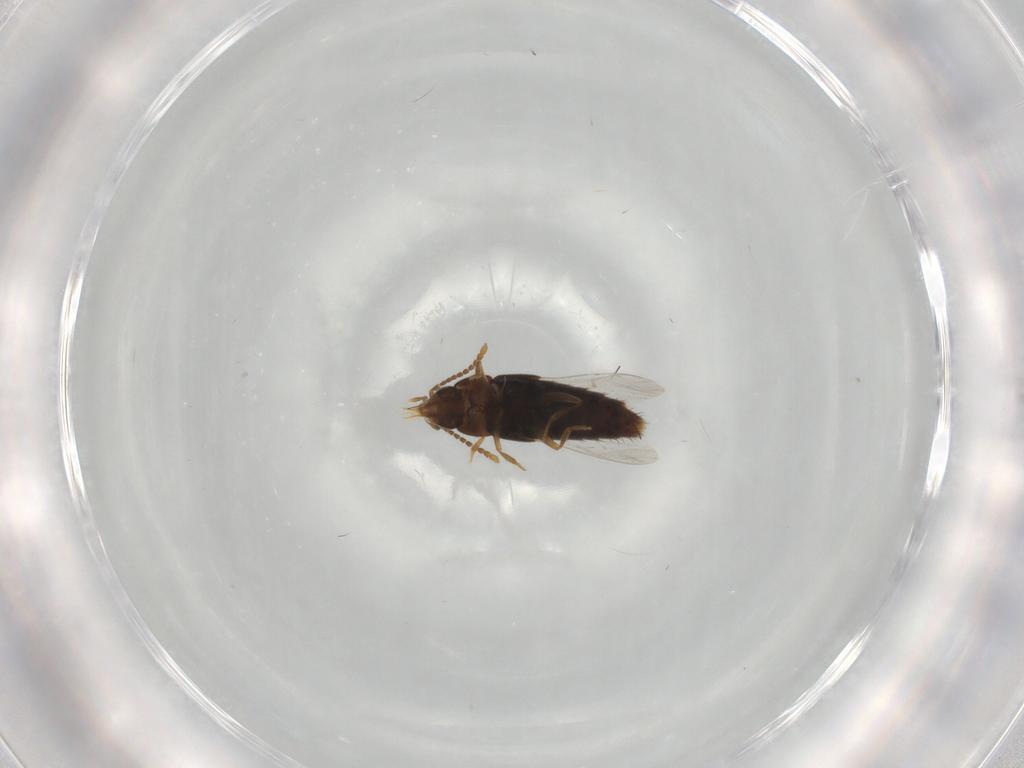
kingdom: Animalia
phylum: Arthropoda
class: Insecta
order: Coleoptera
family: Staphylinidae
